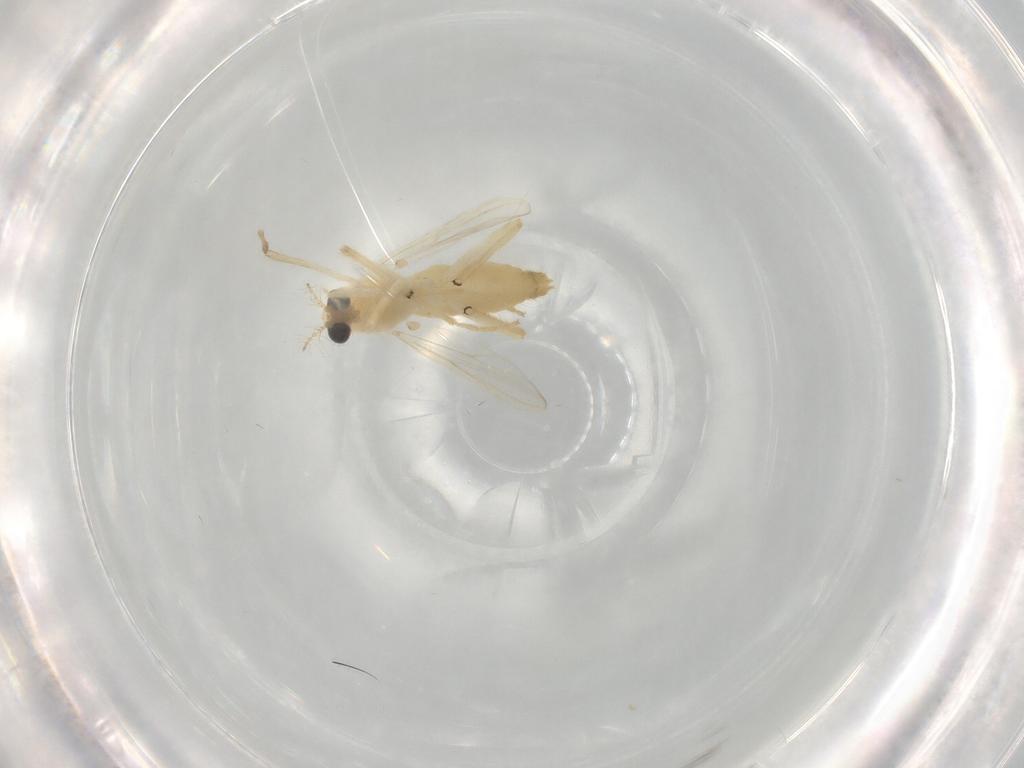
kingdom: Animalia
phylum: Arthropoda
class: Insecta
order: Diptera
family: Chironomidae
